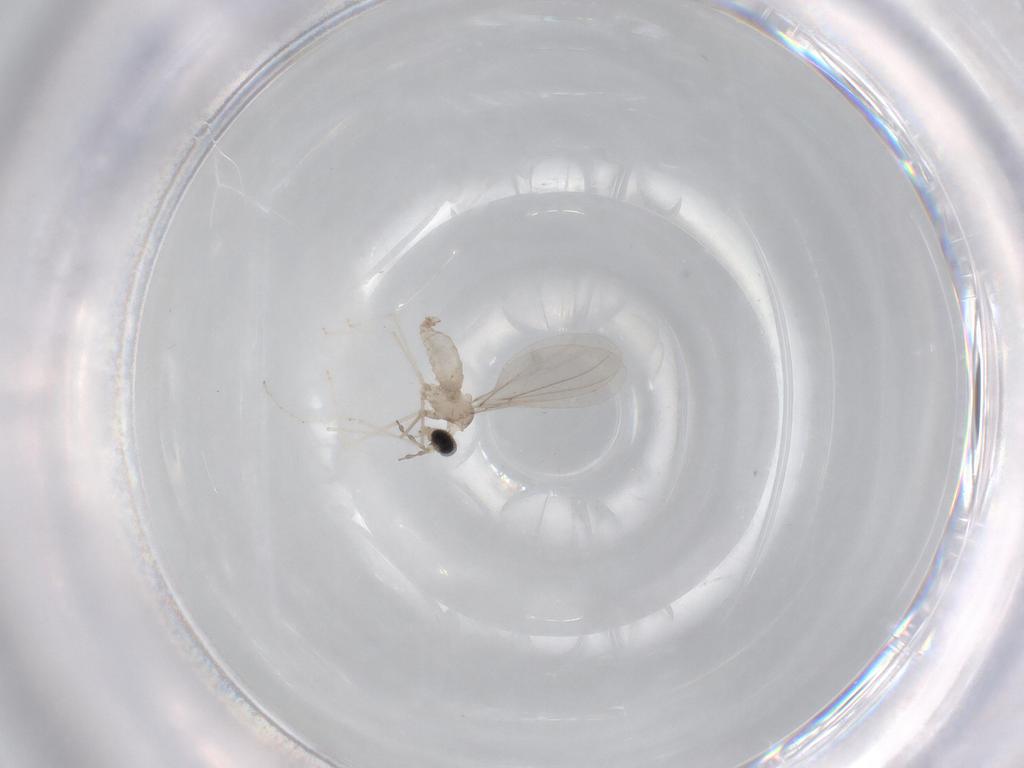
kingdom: Animalia
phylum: Arthropoda
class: Insecta
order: Diptera
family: Cecidomyiidae
